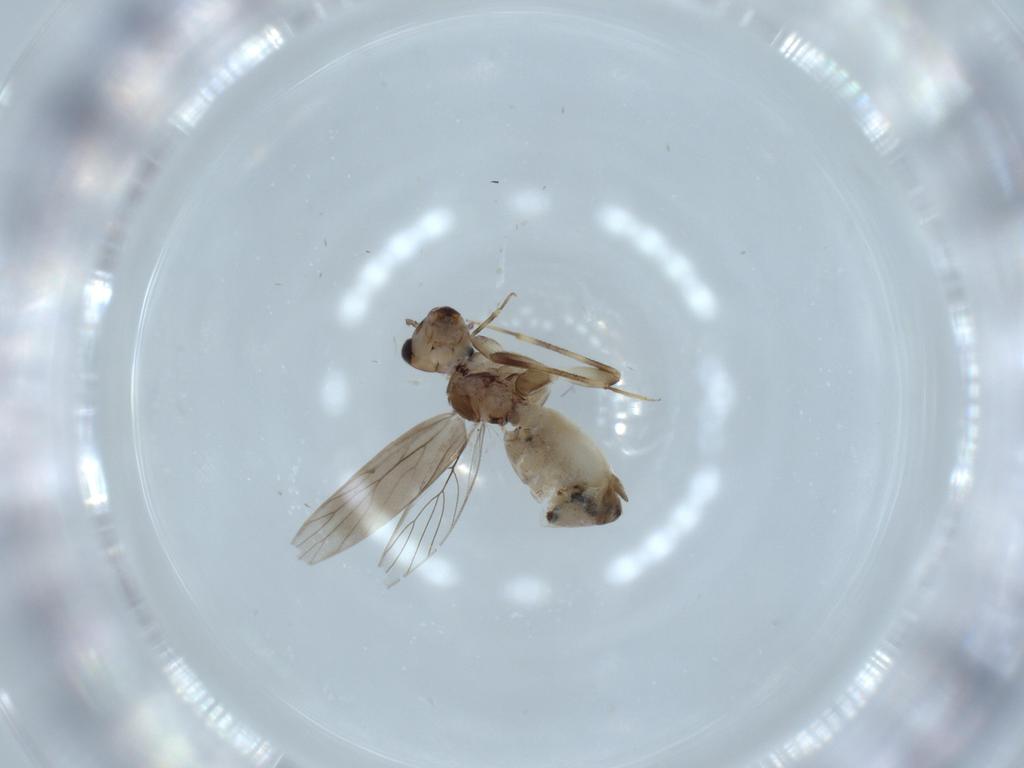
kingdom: Animalia
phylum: Arthropoda
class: Insecta
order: Psocodea
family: Lepidopsocidae
